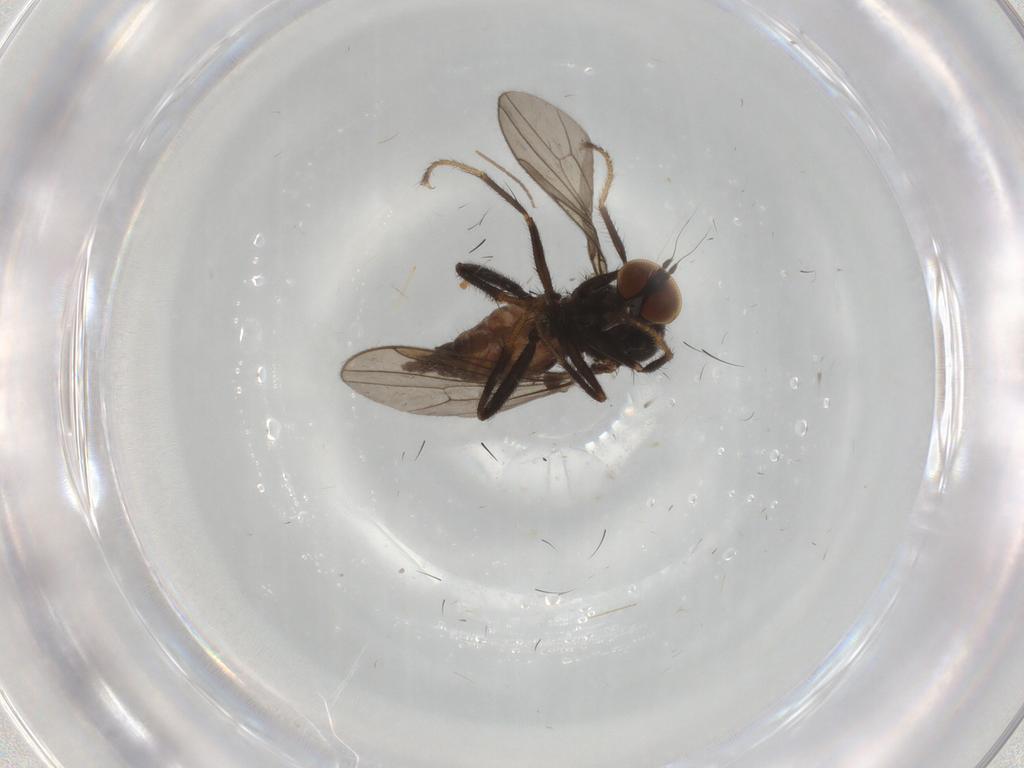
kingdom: Animalia
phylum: Arthropoda
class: Insecta
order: Diptera
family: Hybotidae
